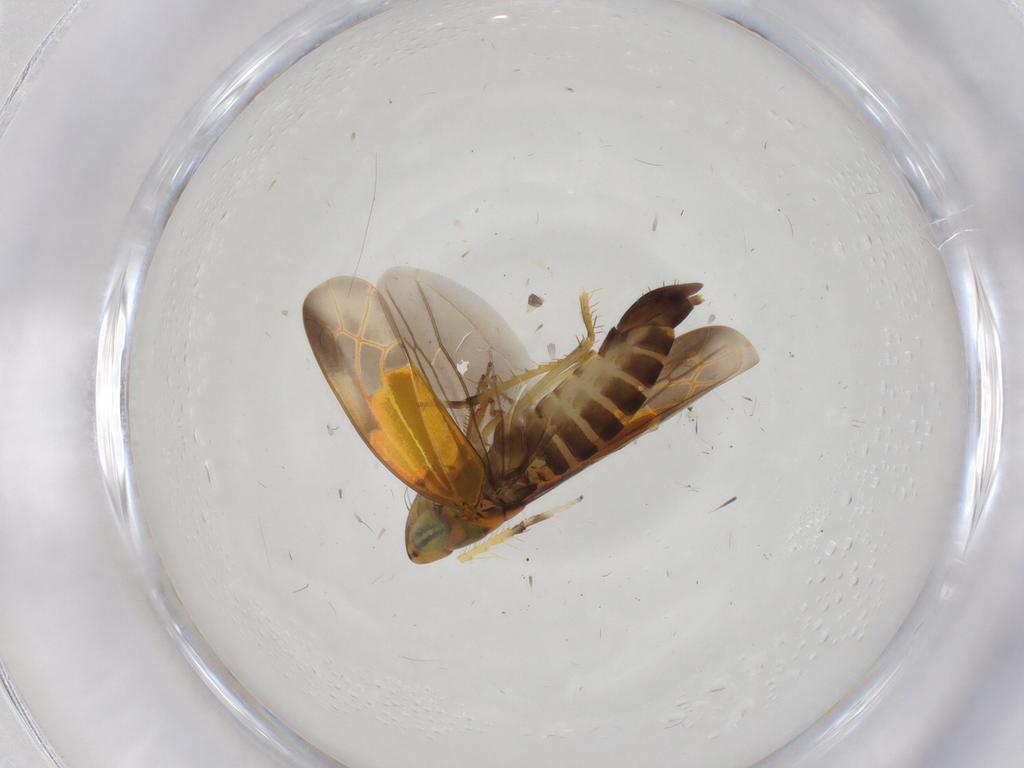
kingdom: Animalia
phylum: Arthropoda
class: Insecta
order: Hemiptera
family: Cicadellidae
